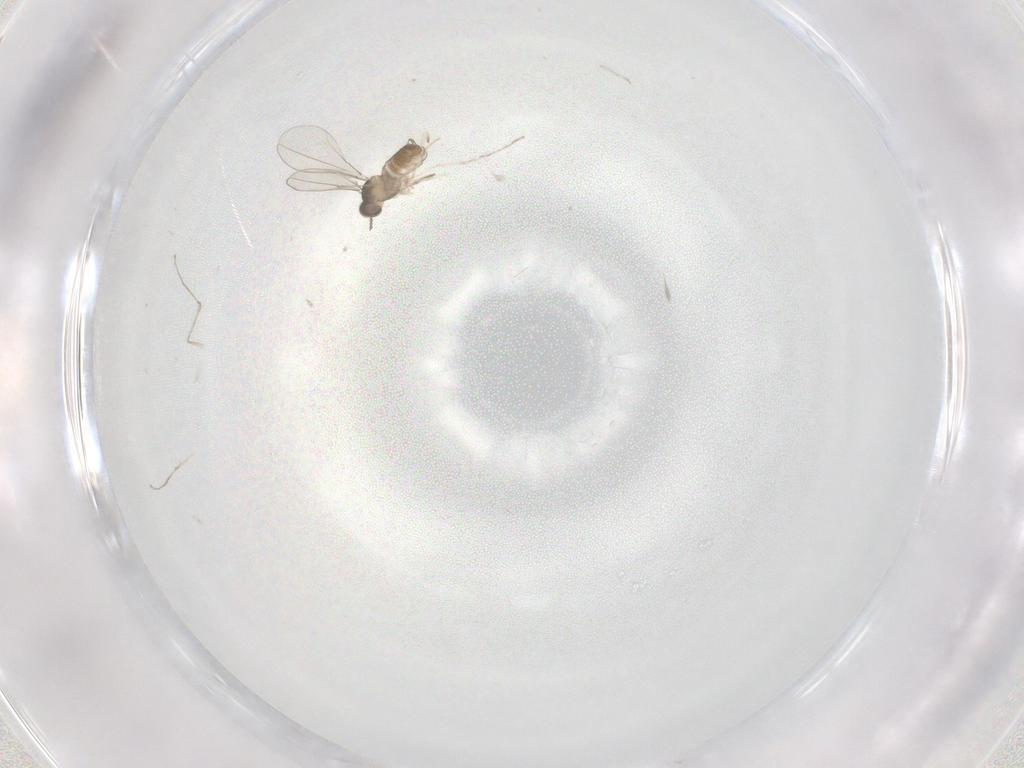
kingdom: Animalia
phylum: Arthropoda
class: Insecta
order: Diptera
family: Cecidomyiidae
